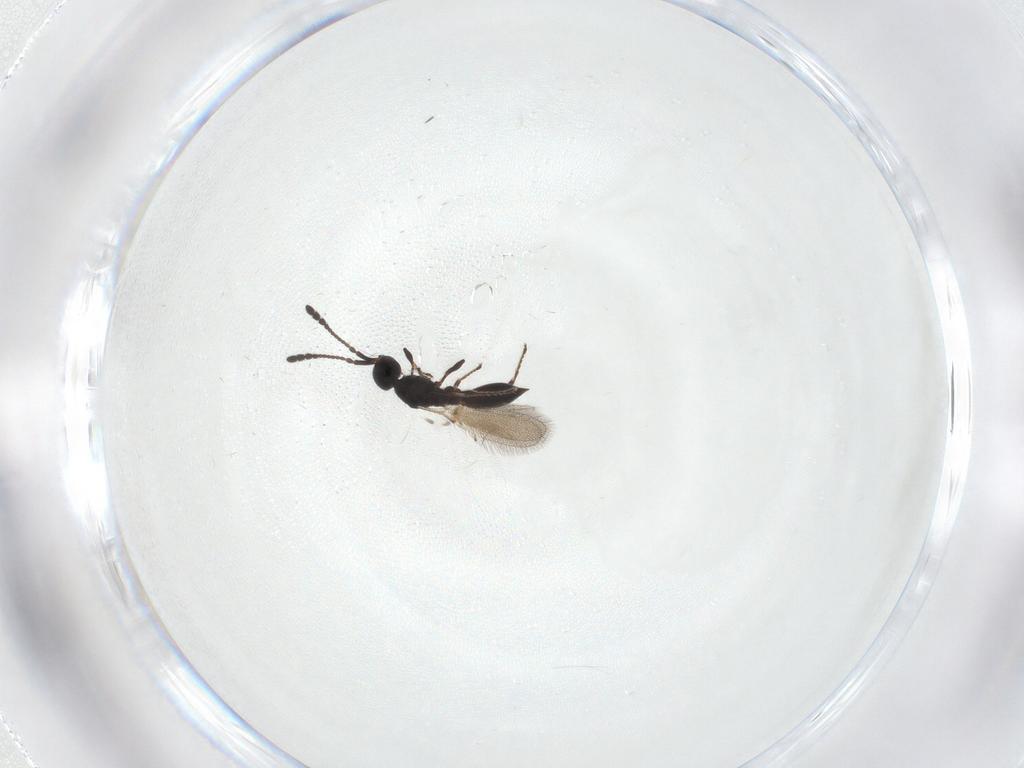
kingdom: Animalia
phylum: Arthropoda
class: Insecta
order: Hymenoptera
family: Diapriidae
